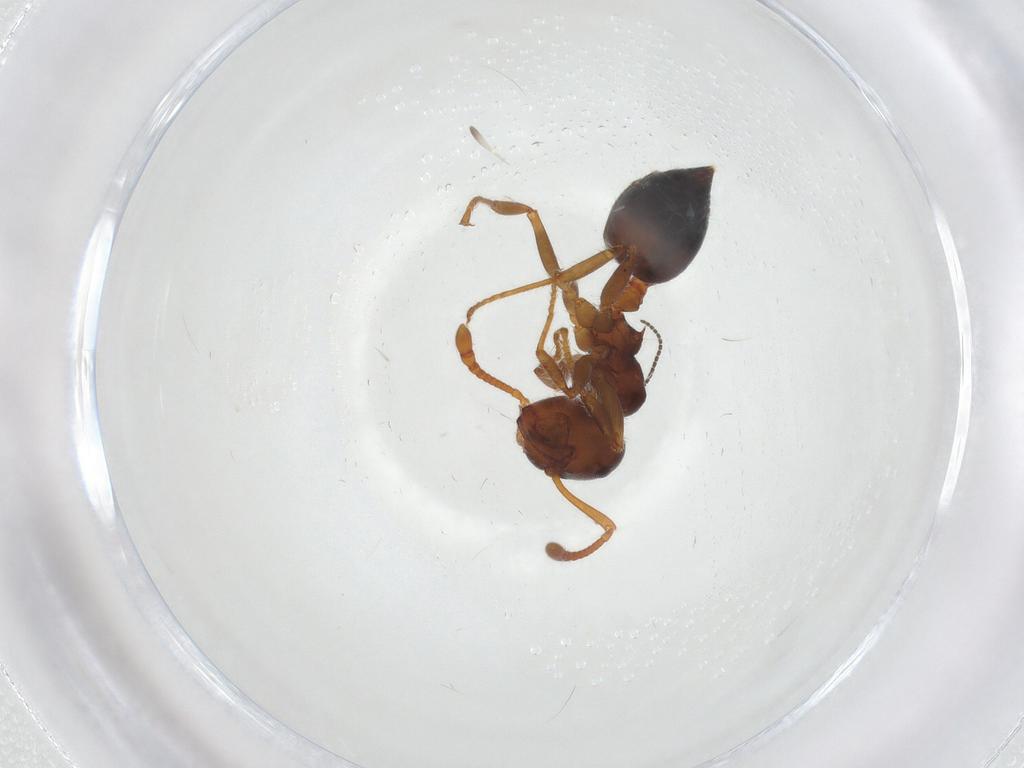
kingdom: Animalia
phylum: Arthropoda
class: Insecta
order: Hymenoptera
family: Formicidae
